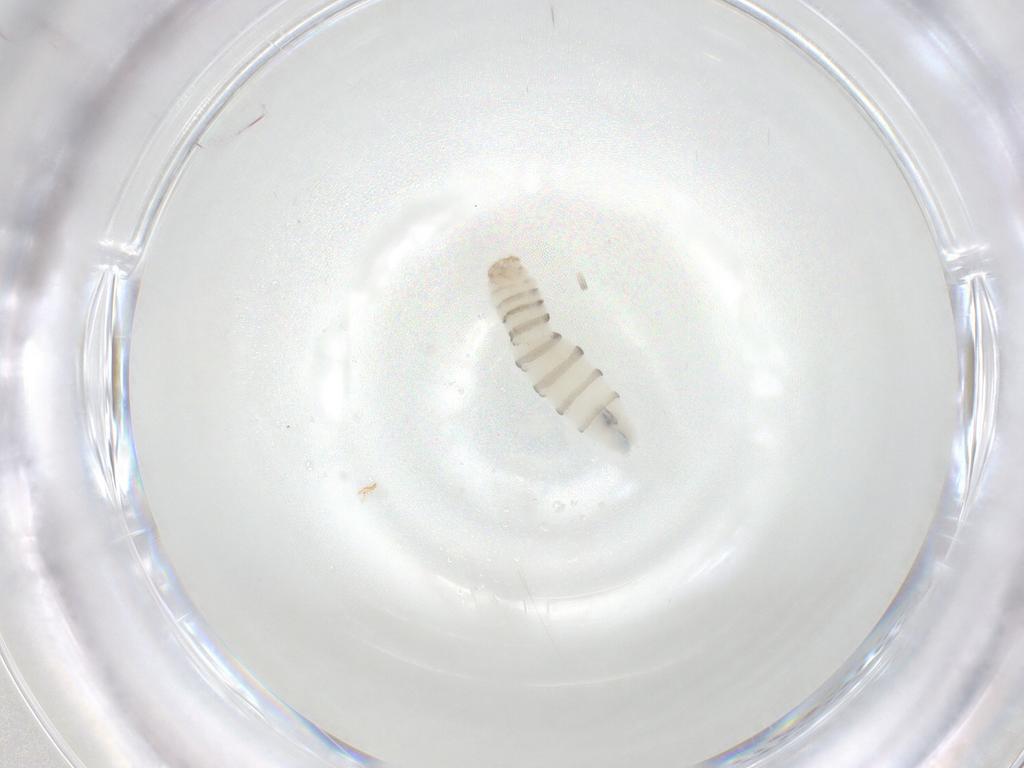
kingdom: Animalia
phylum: Arthropoda
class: Insecta
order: Diptera
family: Sarcophagidae
